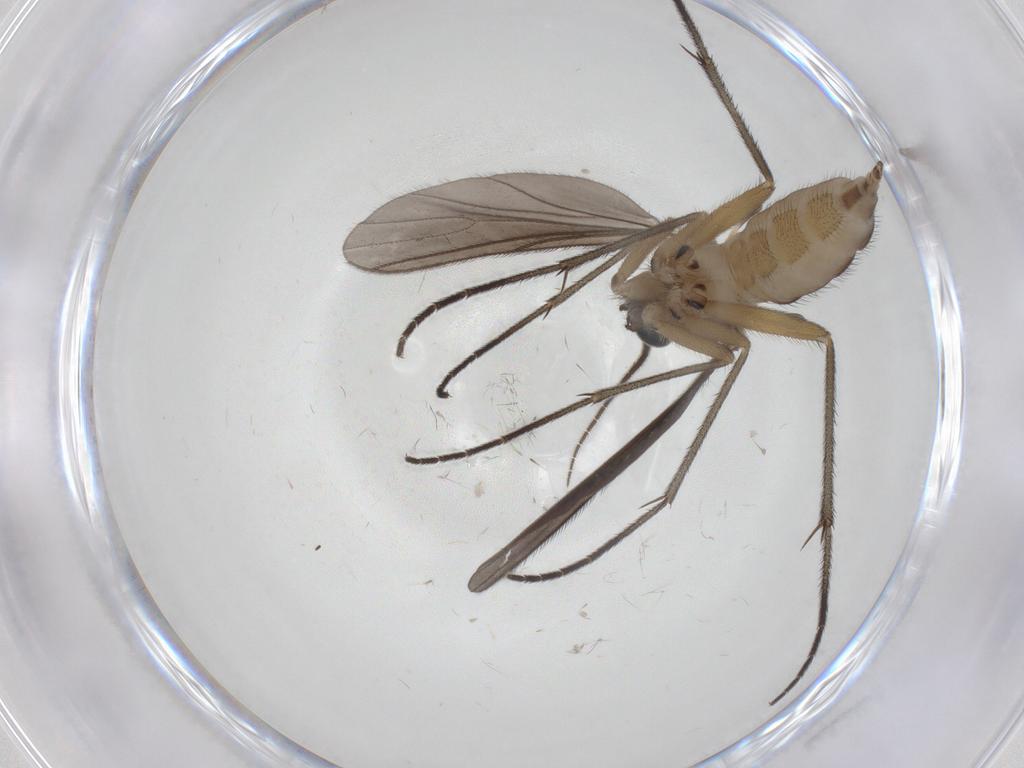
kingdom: Animalia
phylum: Arthropoda
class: Insecta
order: Diptera
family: Sciaridae
